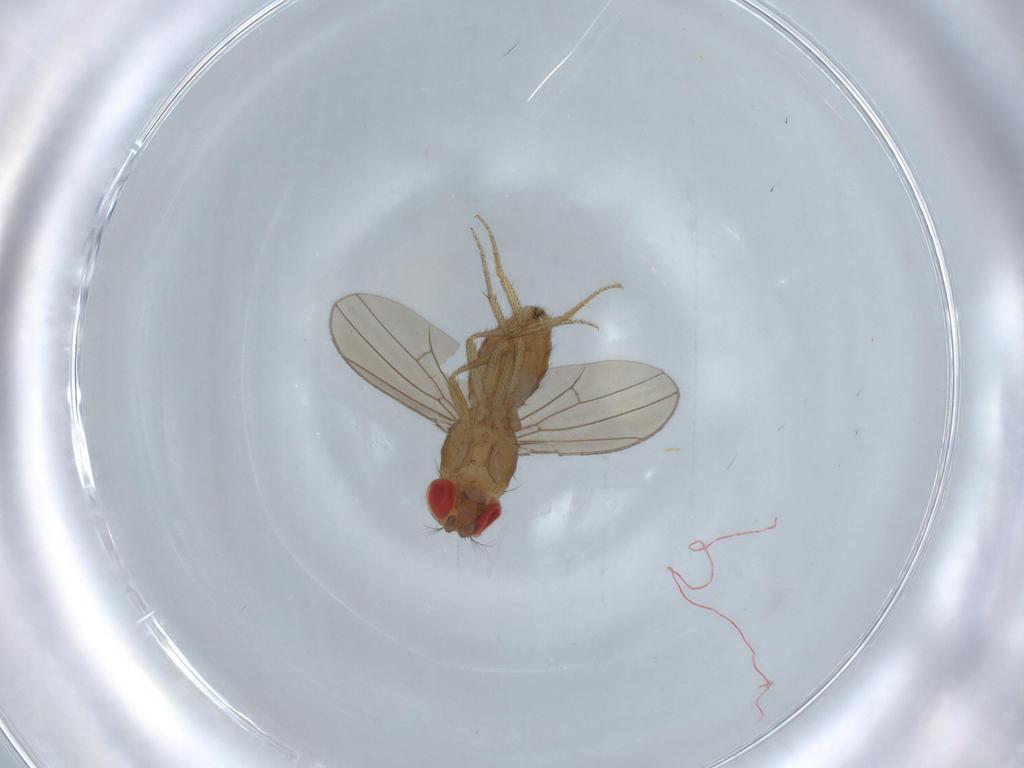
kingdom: Animalia
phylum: Arthropoda
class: Insecta
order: Diptera
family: Drosophilidae
